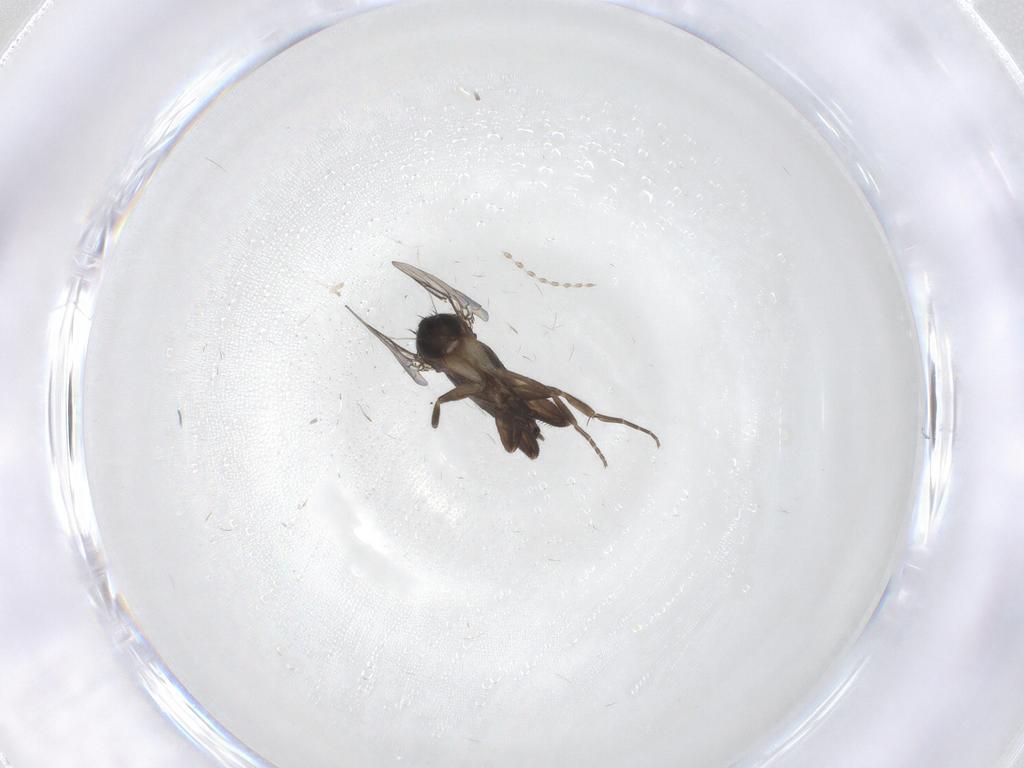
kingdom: Animalia
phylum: Arthropoda
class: Insecta
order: Diptera
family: Phoridae
